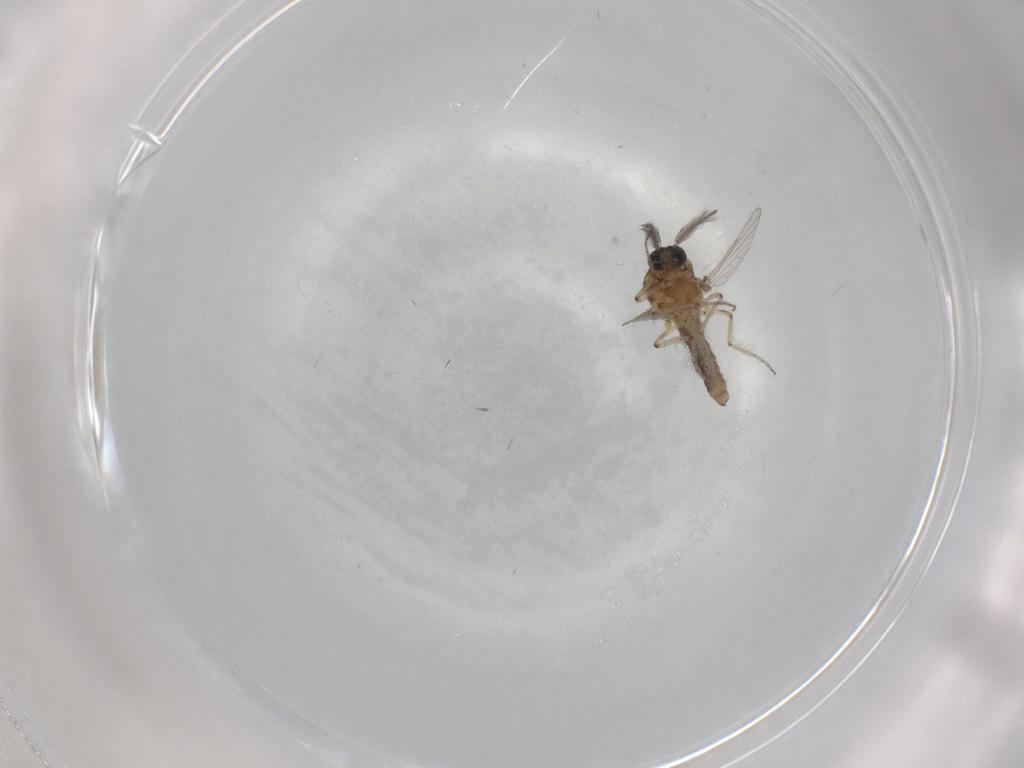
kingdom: Animalia
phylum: Arthropoda
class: Insecta
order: Diptera
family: Ceratopogonidae
